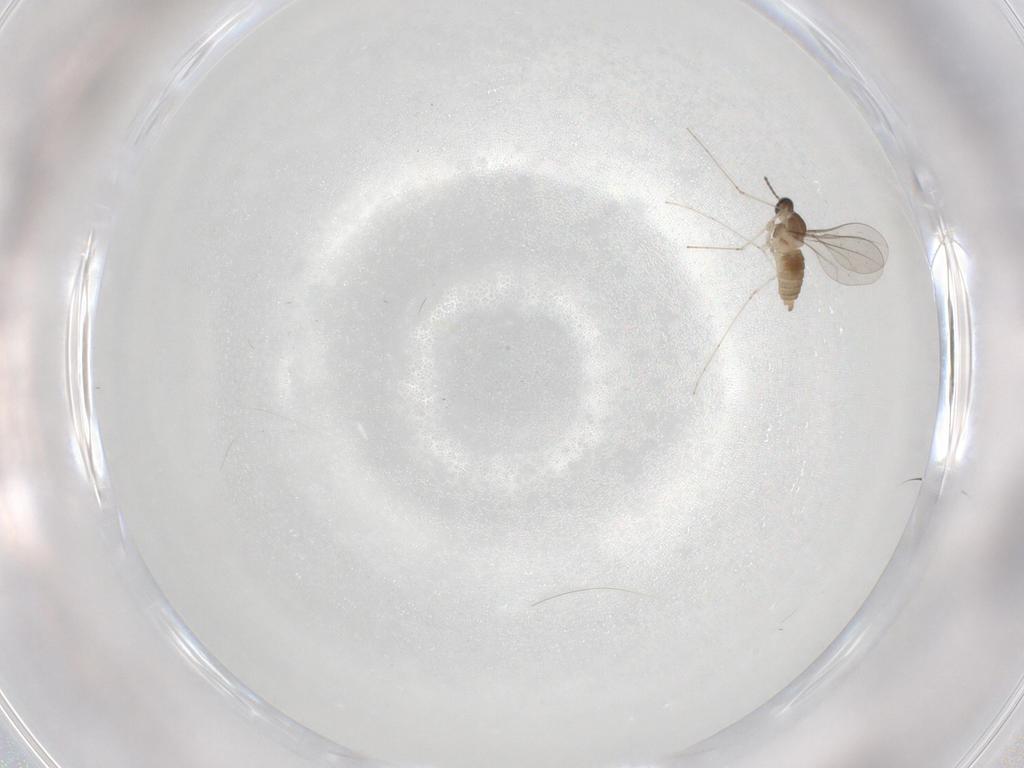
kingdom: Animalia
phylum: Arthropoda
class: Insecta
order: Diptera
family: Cecidomyiidae
